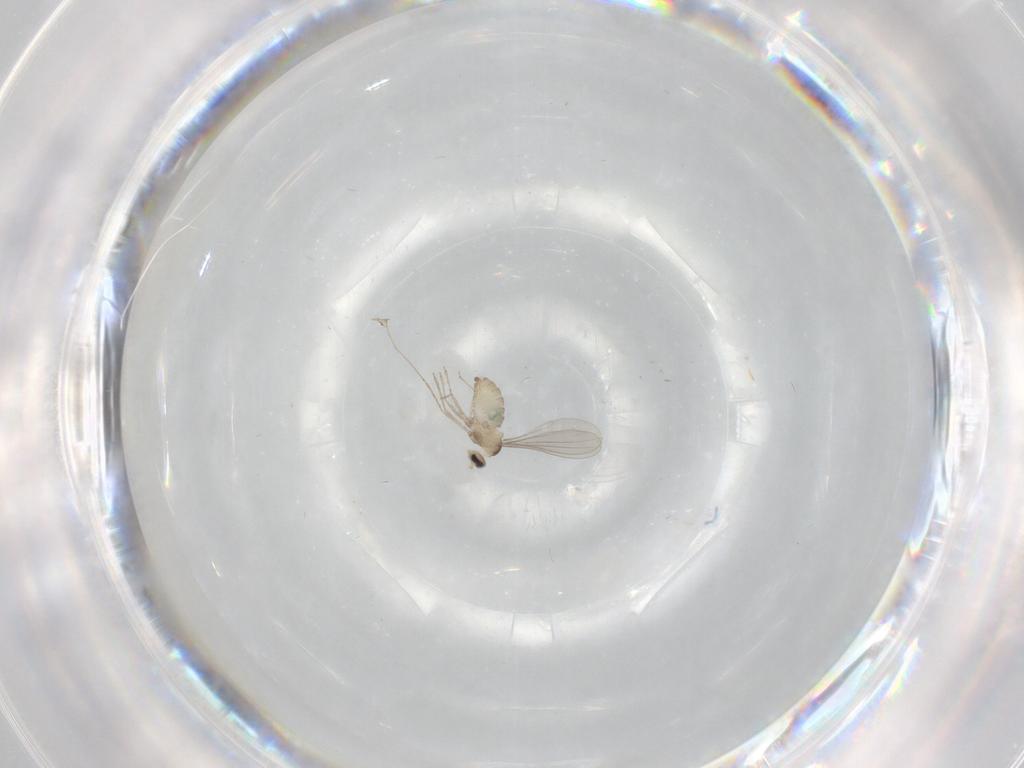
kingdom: Animalia
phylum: Arthropoda
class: Insecta
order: Diptera
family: Cecidomyiidae
